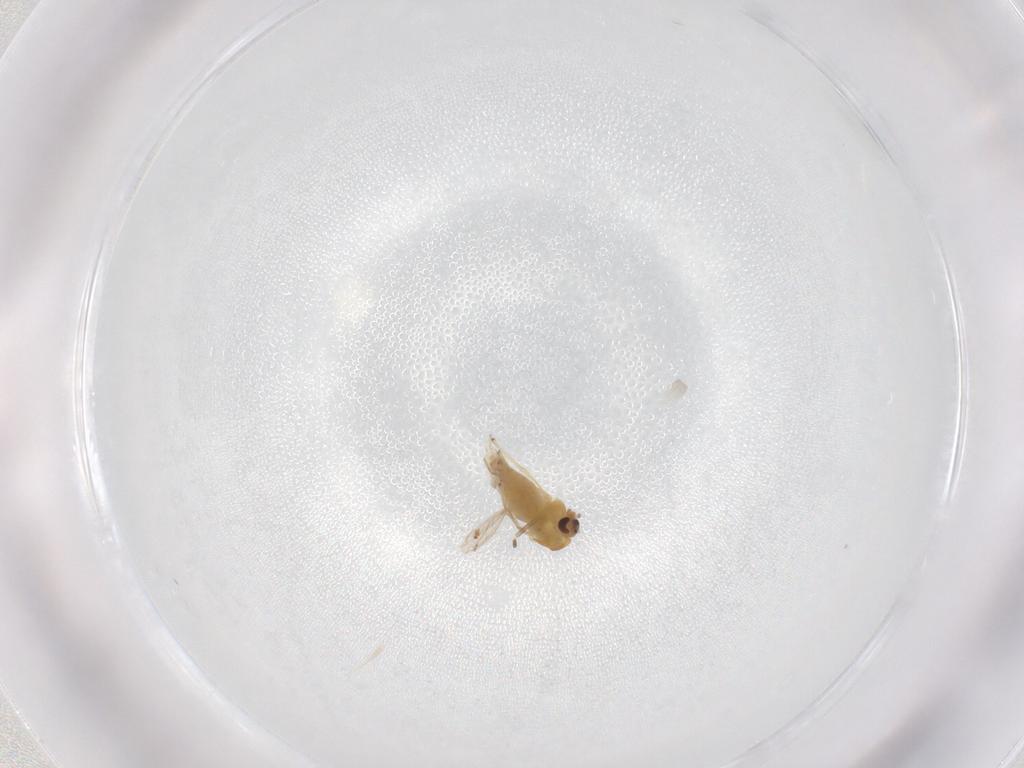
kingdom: Animalia
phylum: Arthropoda
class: Insecta
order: Diptera
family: Chironomidae
